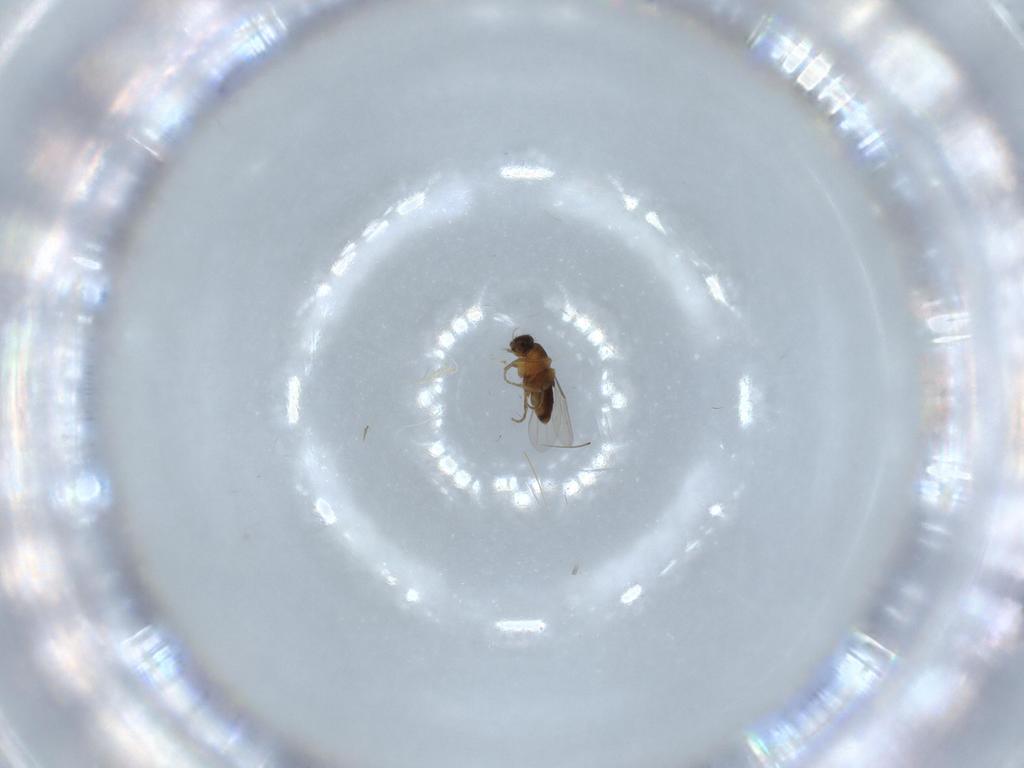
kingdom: Animalia
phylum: Arthropoda
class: Insecta
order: Diptera
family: Phoridae
